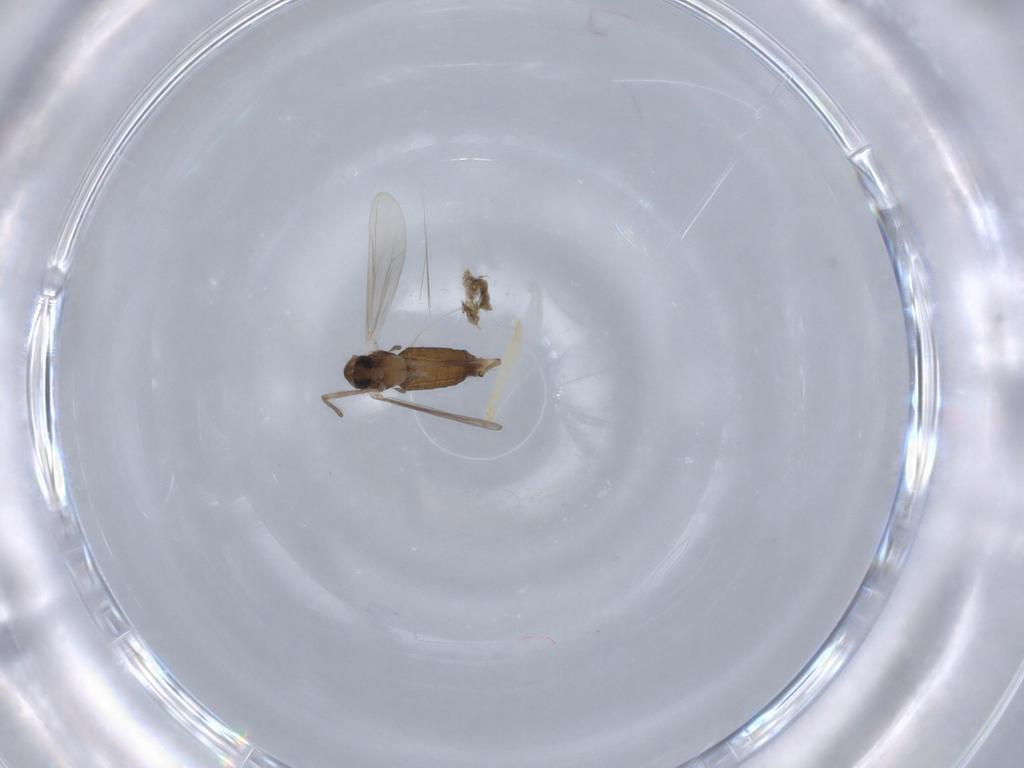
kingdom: Animalia
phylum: Arthropoda
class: Insecta
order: Diptera
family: Chironomidae
